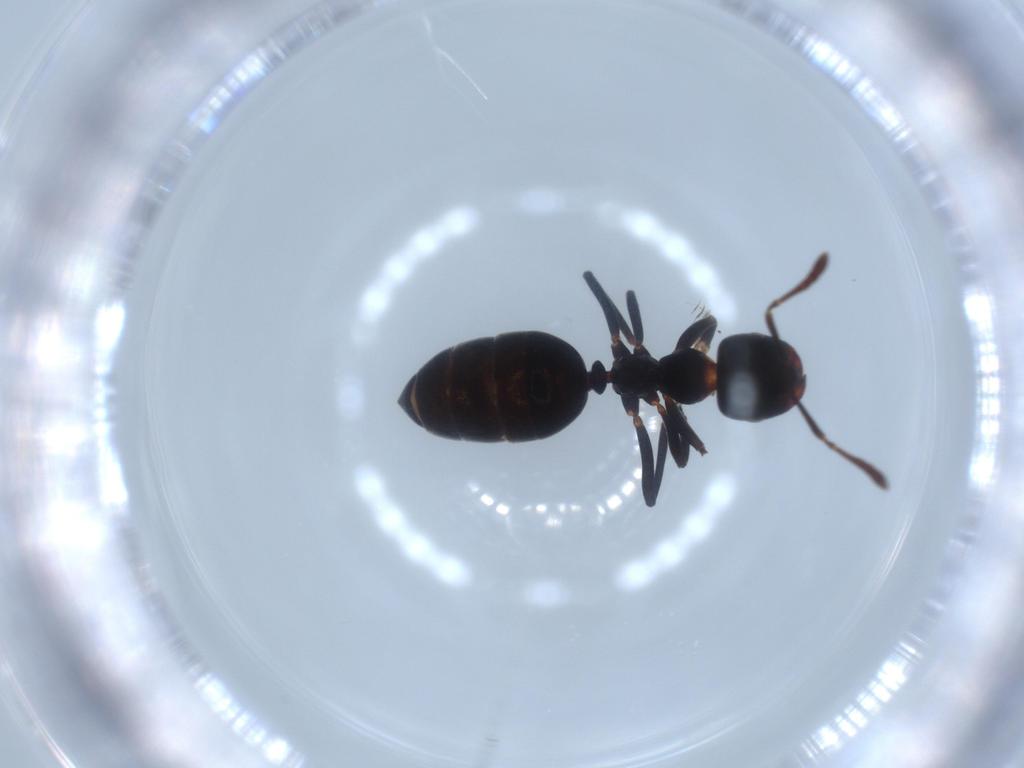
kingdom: Animalia
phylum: Arthropoda
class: Insecta
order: Hymenoptera
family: Formicidae
